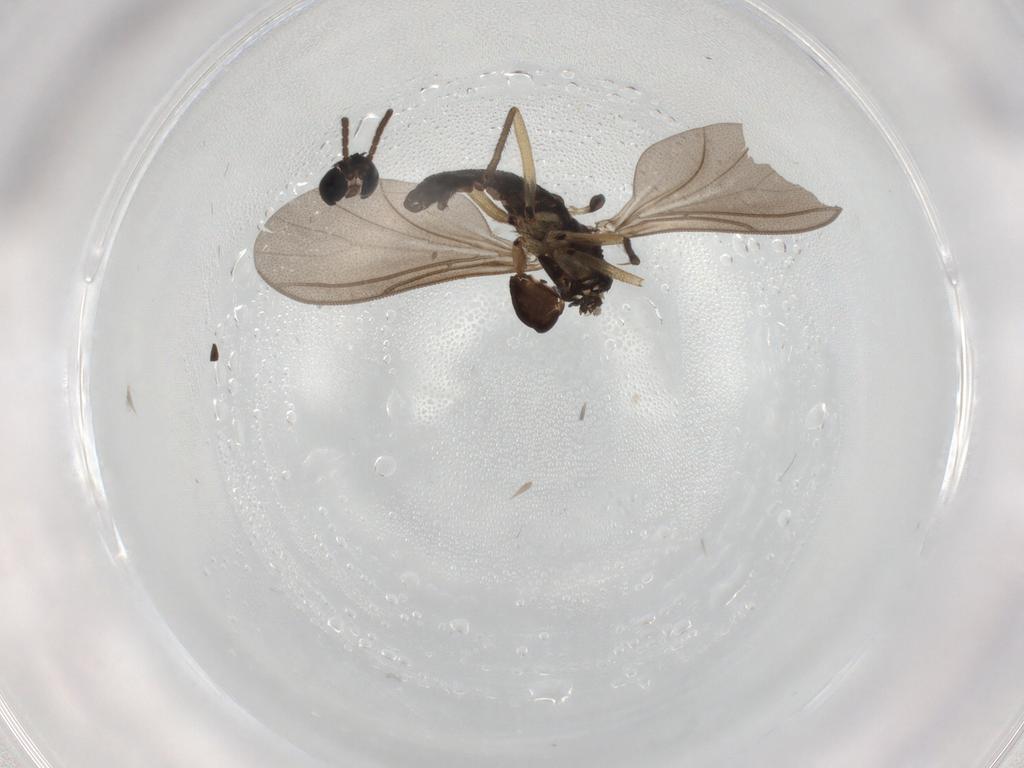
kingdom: Animalia
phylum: Arthropoda
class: Insecta
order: Diptera
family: Sciaridae
